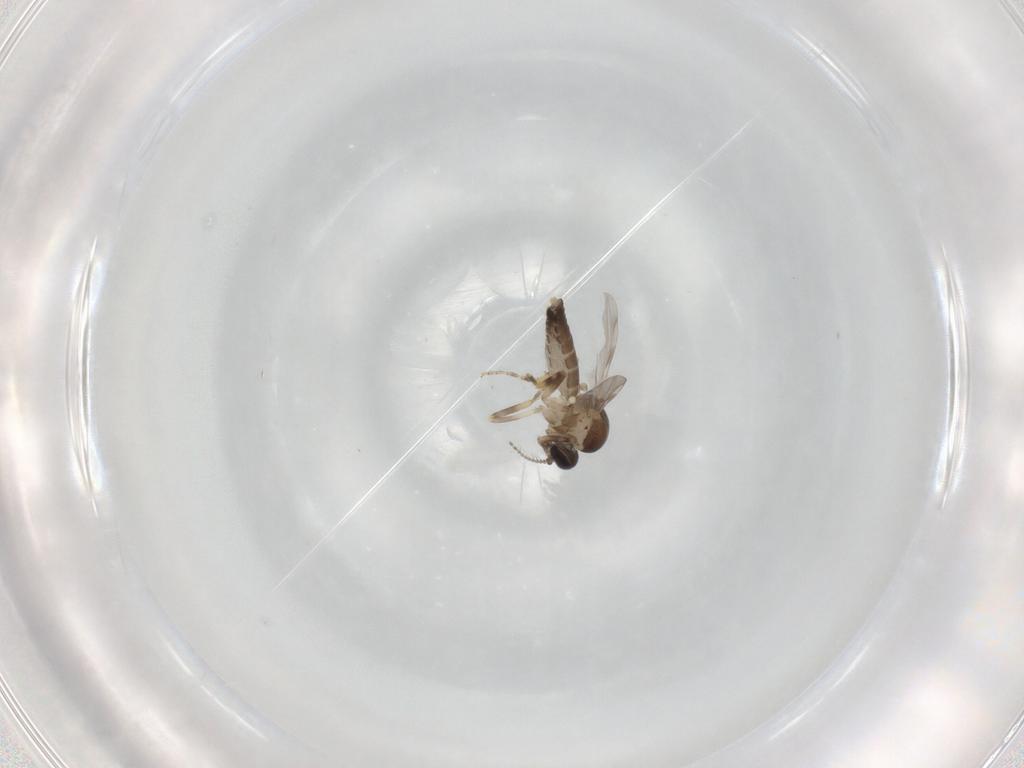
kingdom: Animalia
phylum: Arthropoda
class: Insecta
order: Diptera
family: Ceratopogonidae
